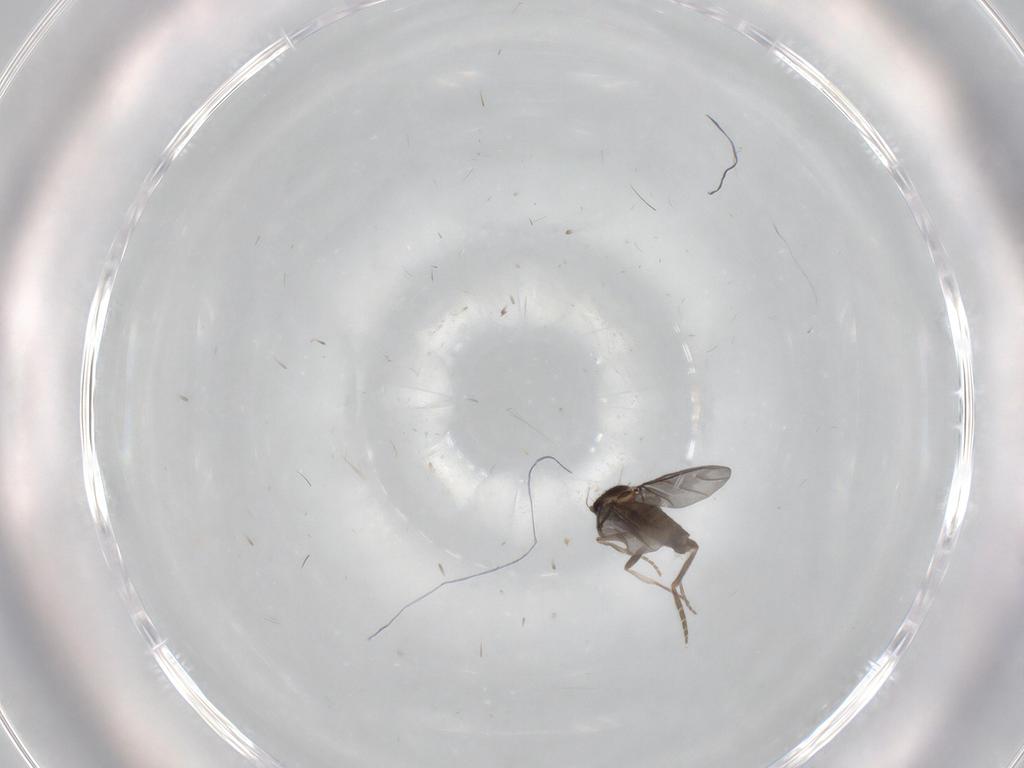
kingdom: Animalia
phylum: Arthropoda
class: Insecta
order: Diptera
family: Phoridae
